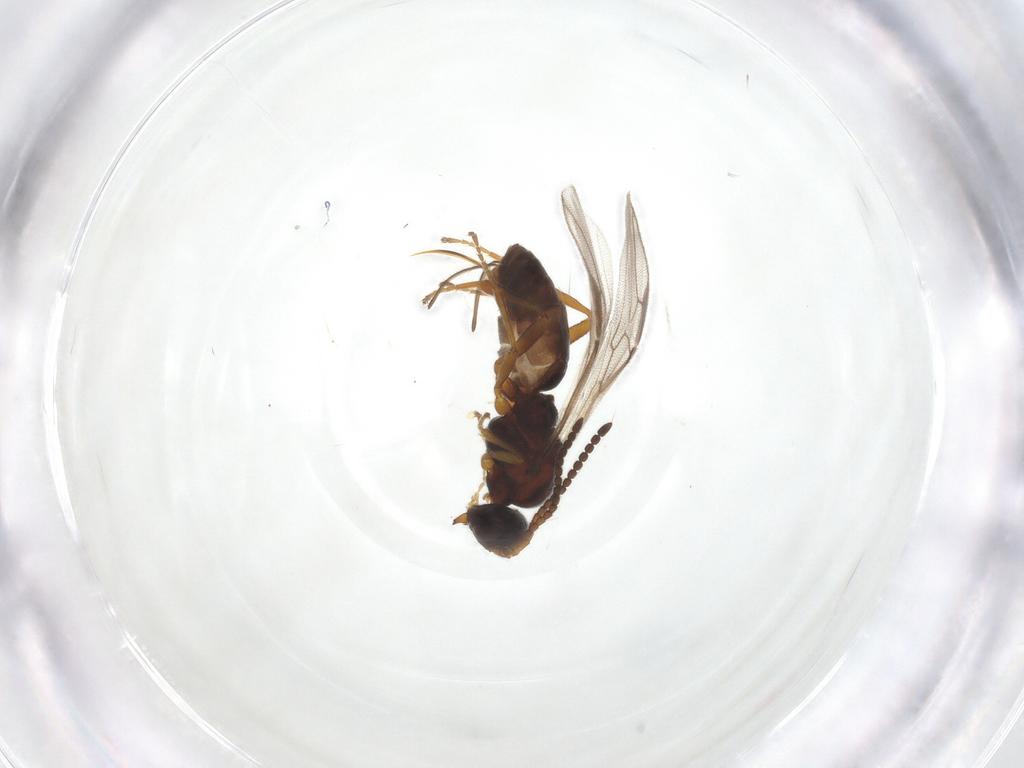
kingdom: Animalia
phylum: Arthropoda
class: Insecta
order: Hymenoptera
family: Braconidae
